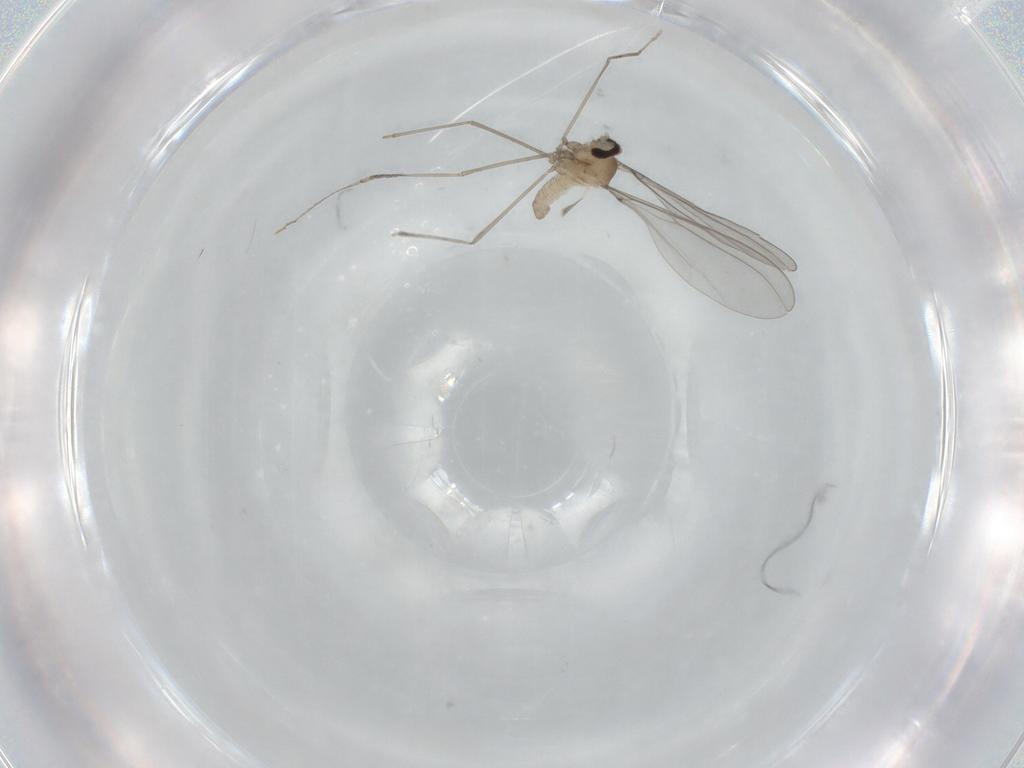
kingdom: Animalia
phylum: Arthropoda
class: Insecta
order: Diptera
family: Cecidomyiidae
